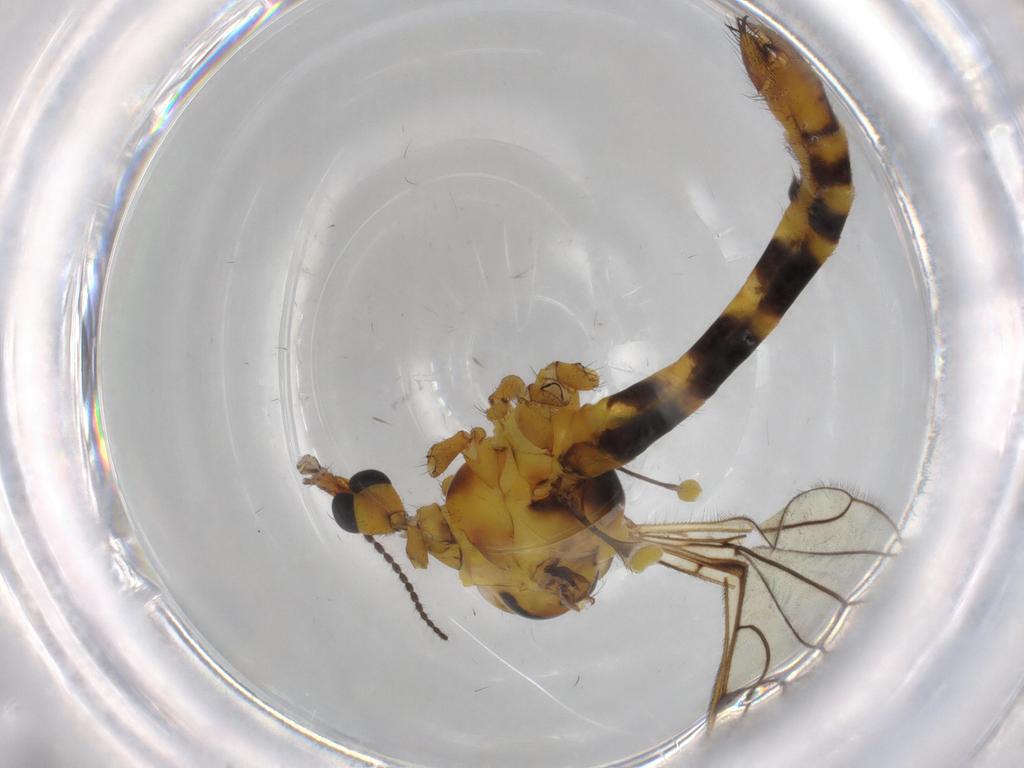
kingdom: Animalia
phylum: Arthropoda
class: Insecta
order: Diptera
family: Limoniidae
